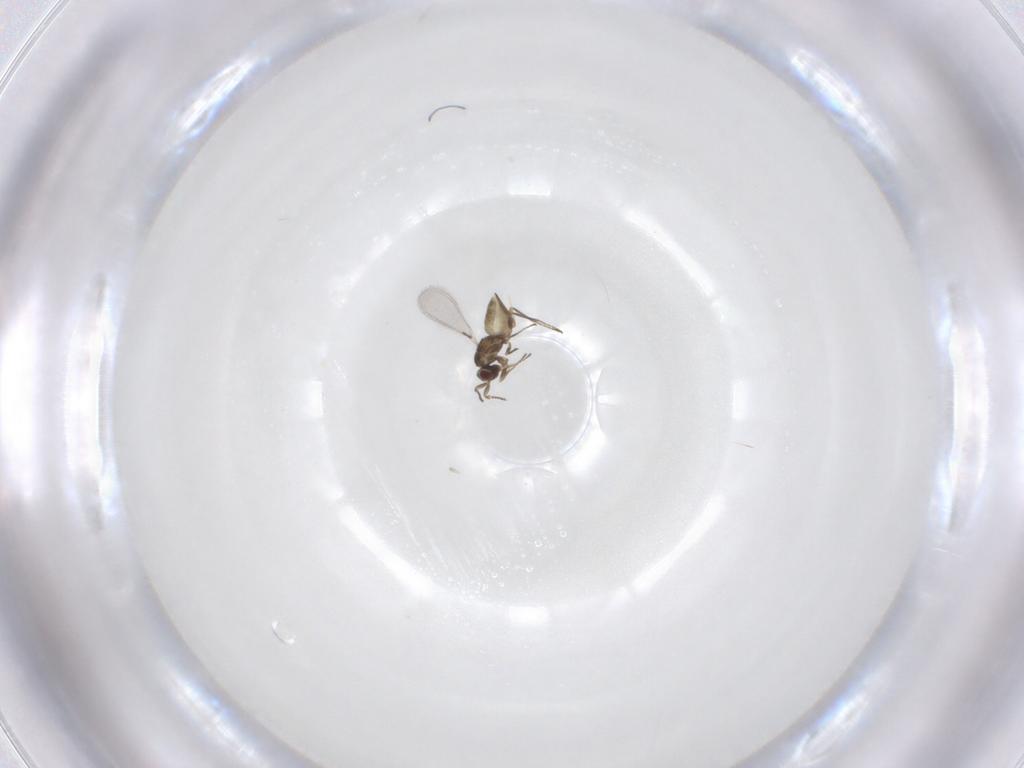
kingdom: Animalia
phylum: Arthropoda
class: Insecta
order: Hymenoptera
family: Mymaridae
